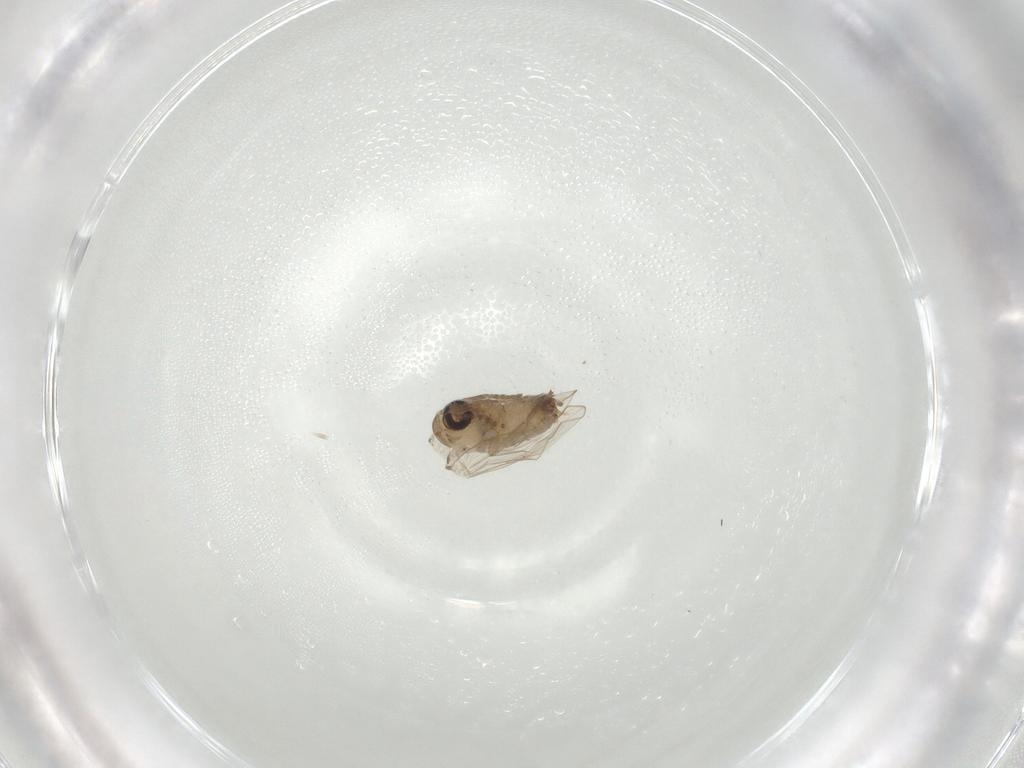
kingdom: Animalia
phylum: Arthropoda
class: Insecta
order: Diptera
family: Psychodidae
